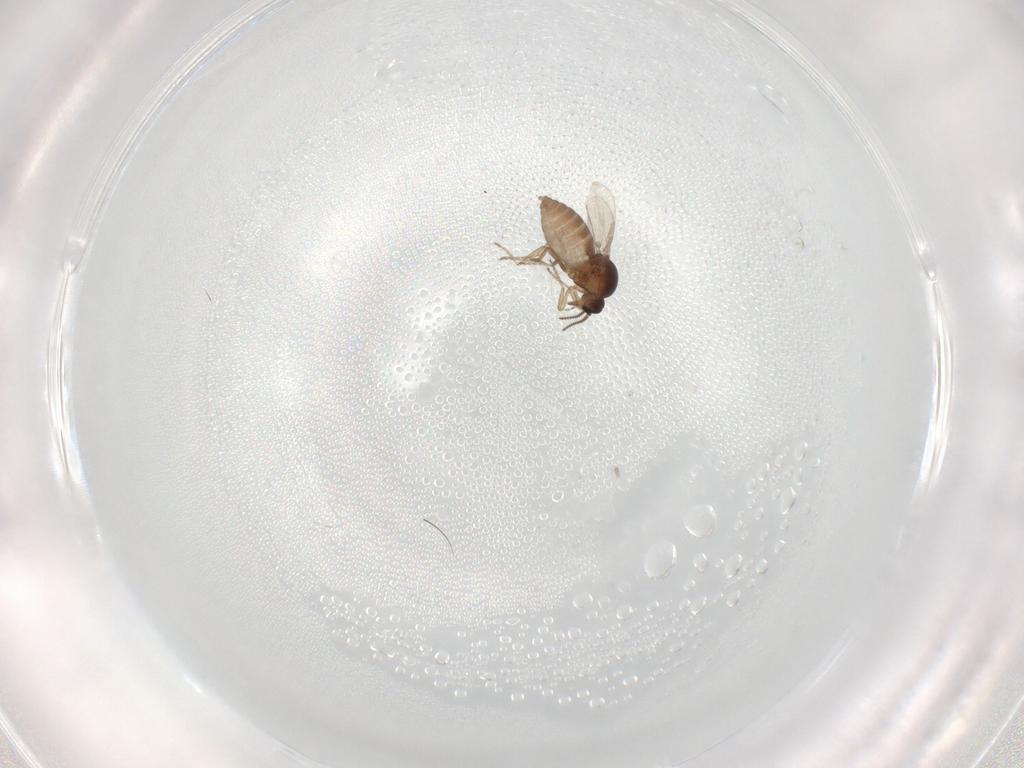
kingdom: Animalia
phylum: Arthropoda
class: Insecta
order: Diptera
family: Ceratopogonidae
